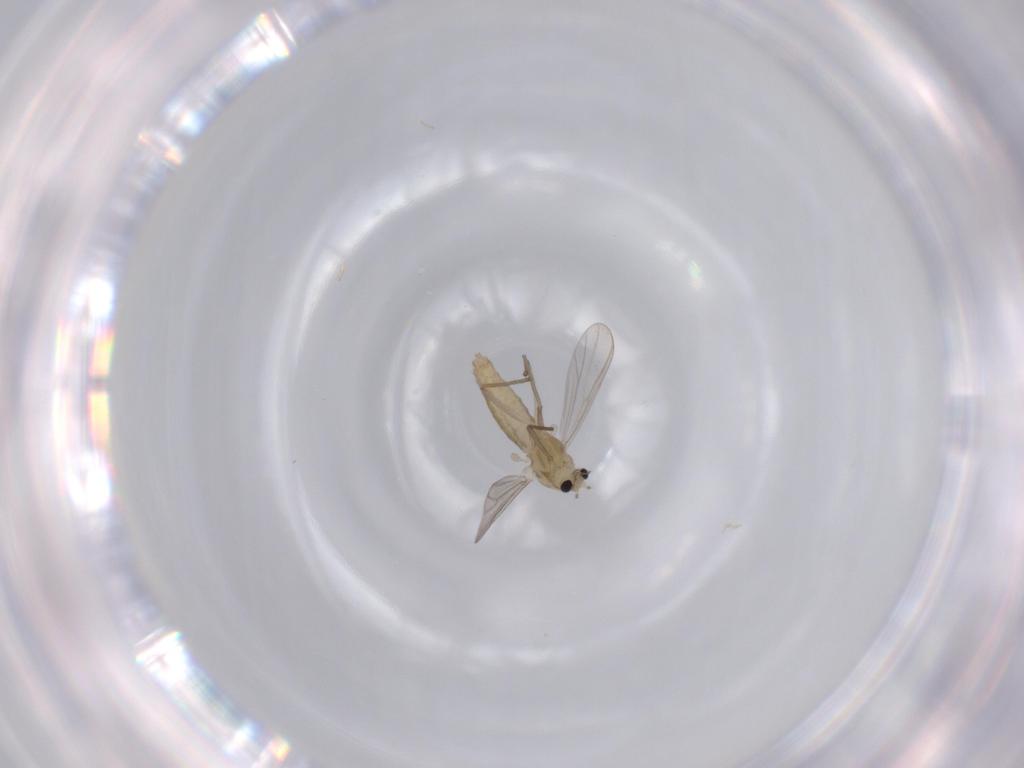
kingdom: Animalia
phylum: Arthropoda
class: Insecta
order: Diptera
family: Chironomidae
